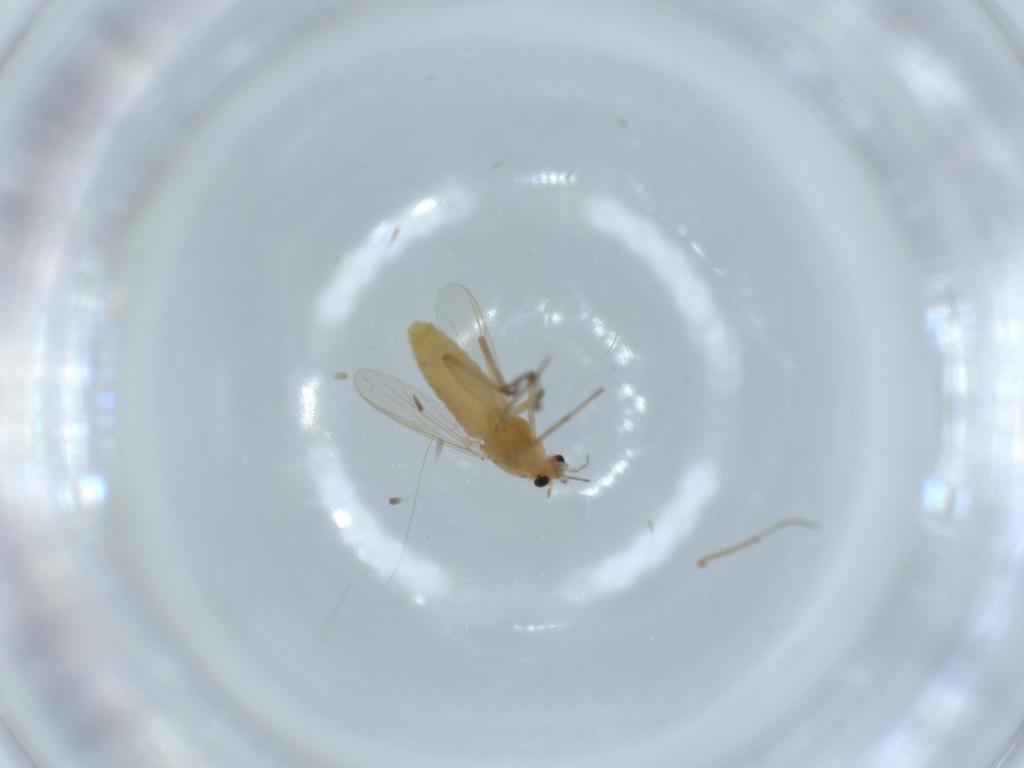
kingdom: Animalia
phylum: Arthropoda
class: Insecta
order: Diptera
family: Chironomidae
